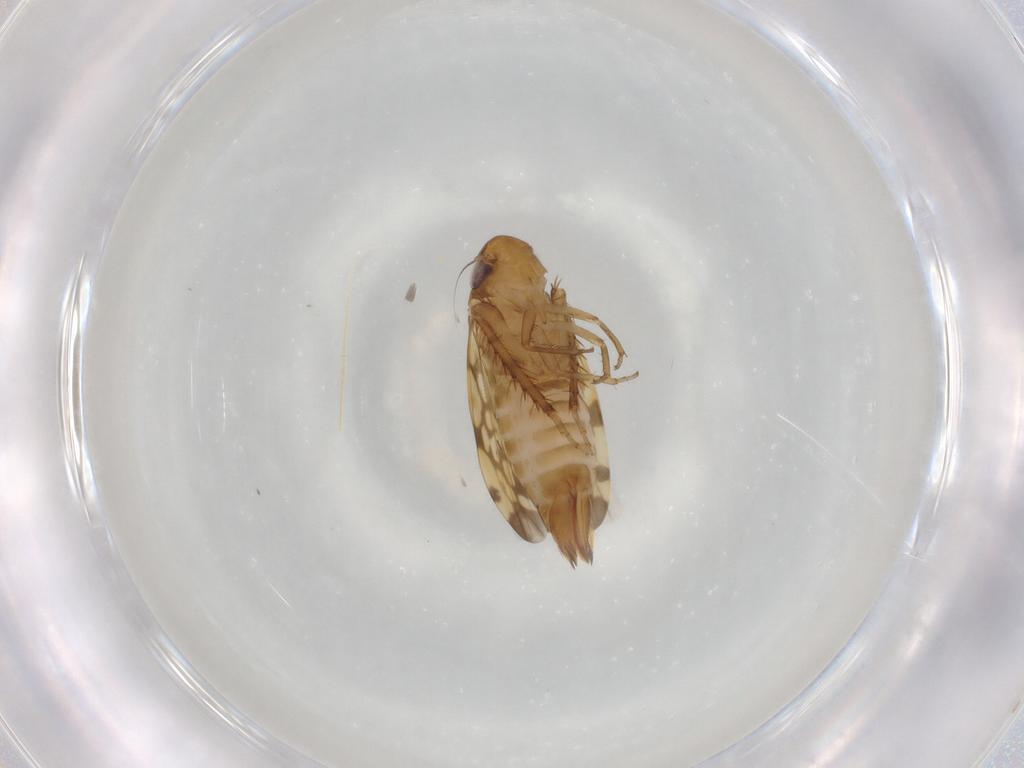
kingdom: Animalia
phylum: Arthropoda
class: Insecta
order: Hemiptera
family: Cicadellidae
